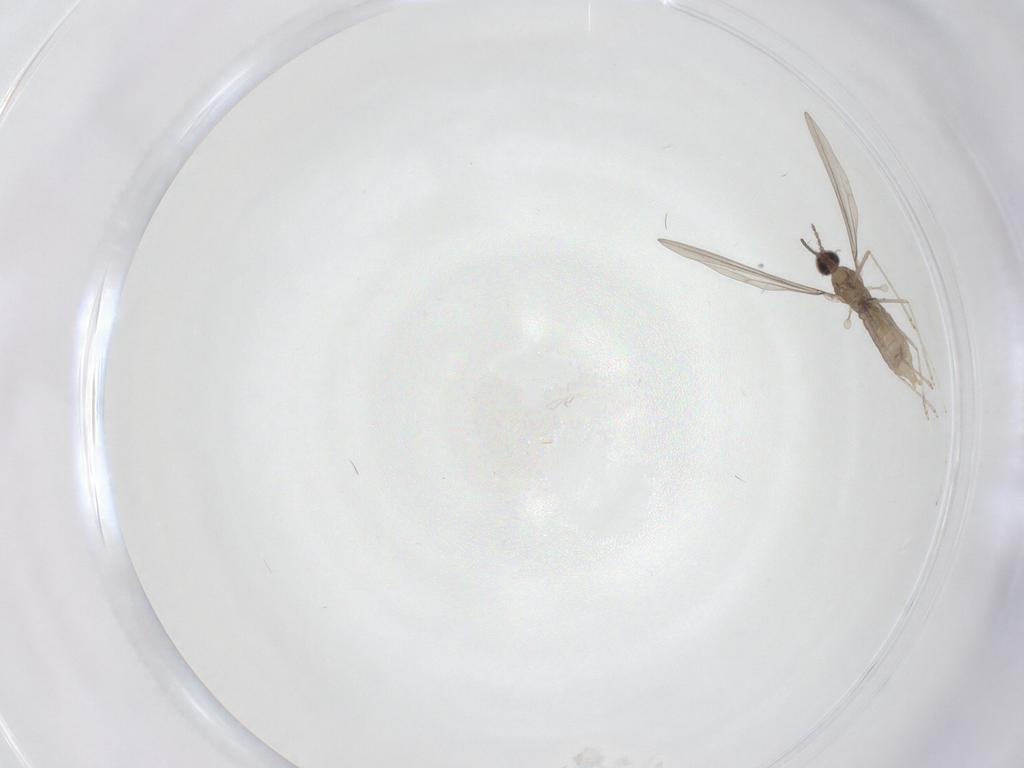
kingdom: Animalia
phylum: Arthropoda
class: Insecta
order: Diptera
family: Cecidomyiidae
